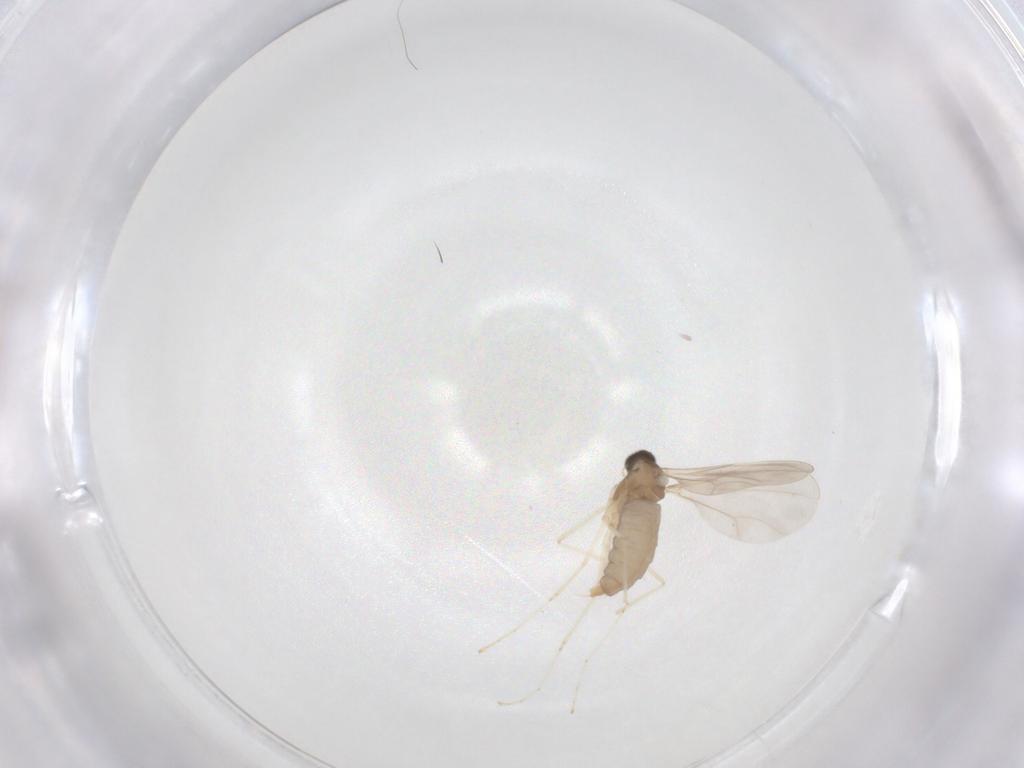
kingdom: Animalia
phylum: Arthropoda
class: Insecta
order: Diptera
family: Cecidomyiidae
